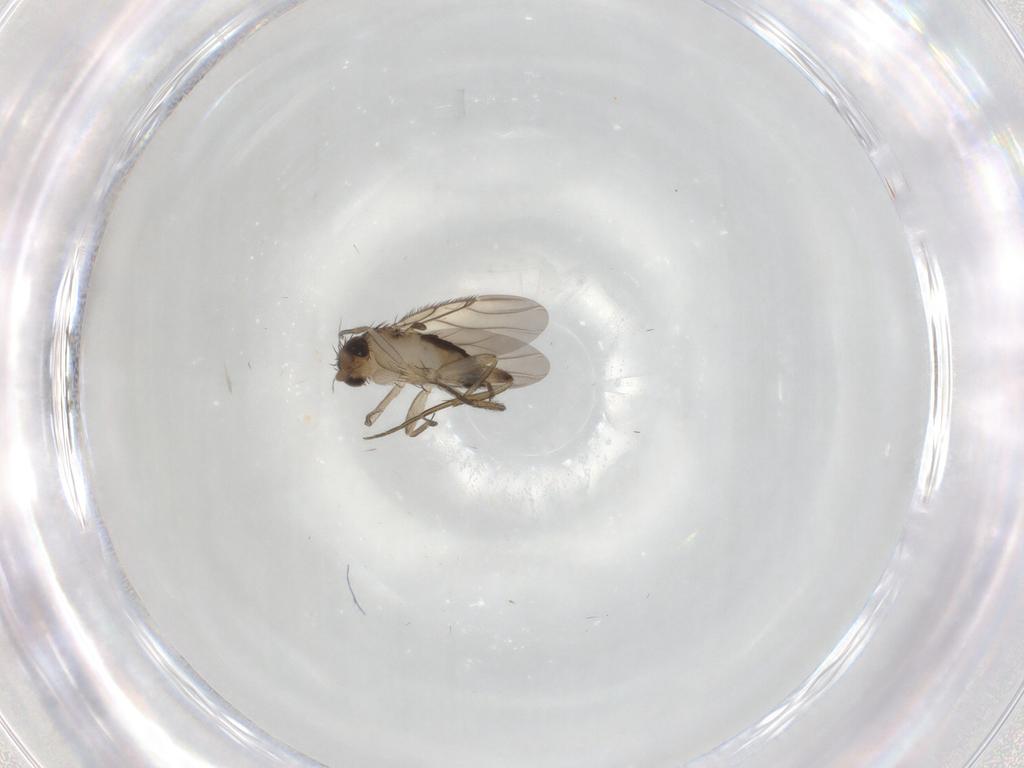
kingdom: Animalia
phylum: Arthropoda
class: Insecta
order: Diptera
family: Phoridae
